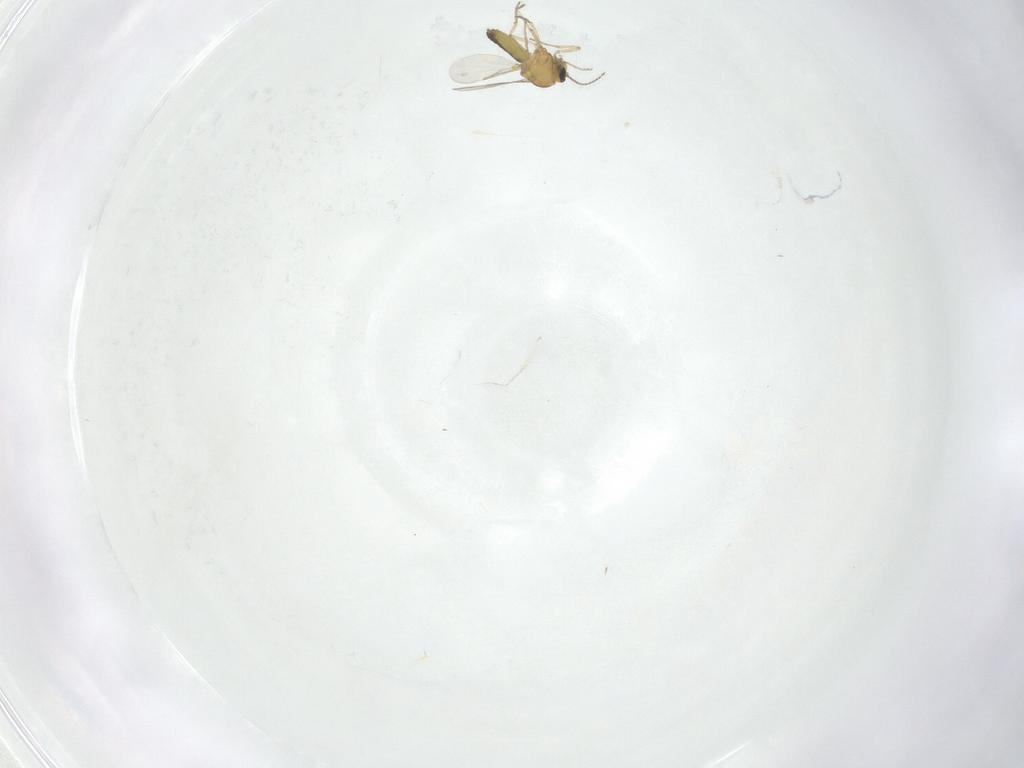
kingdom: Animalia
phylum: Arthropoda
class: Insecta
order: Diptera
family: Ceratopogonidae
